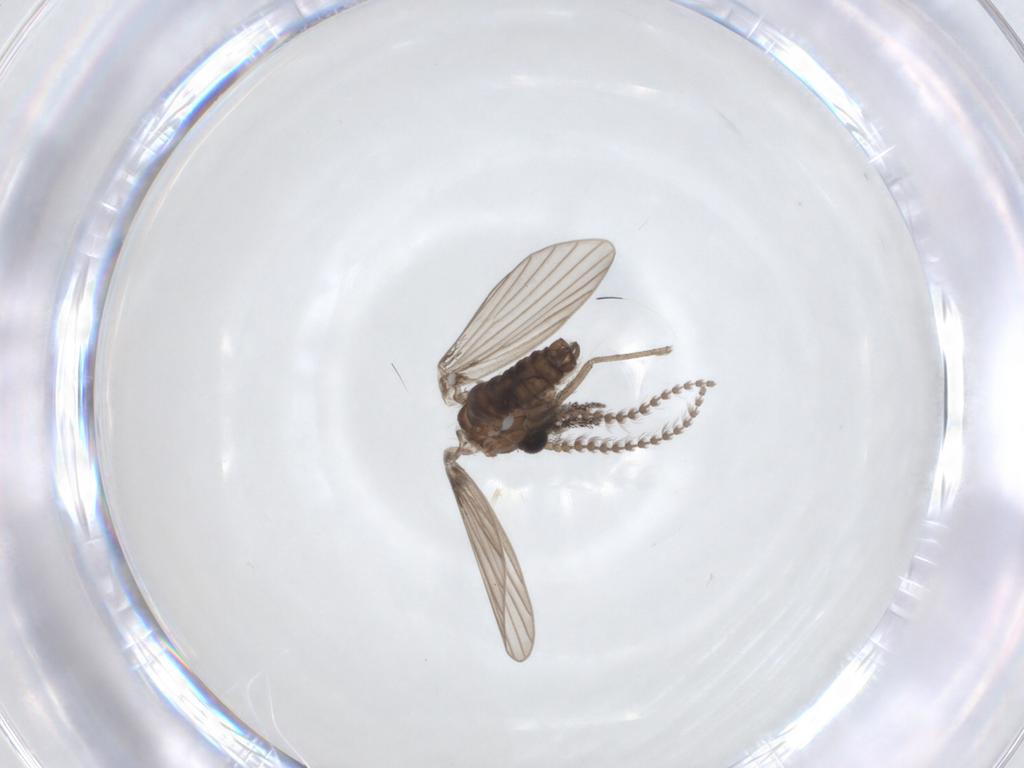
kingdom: Animalia
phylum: Arthropoda
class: Insecta
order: Diptera
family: Psychodidae
